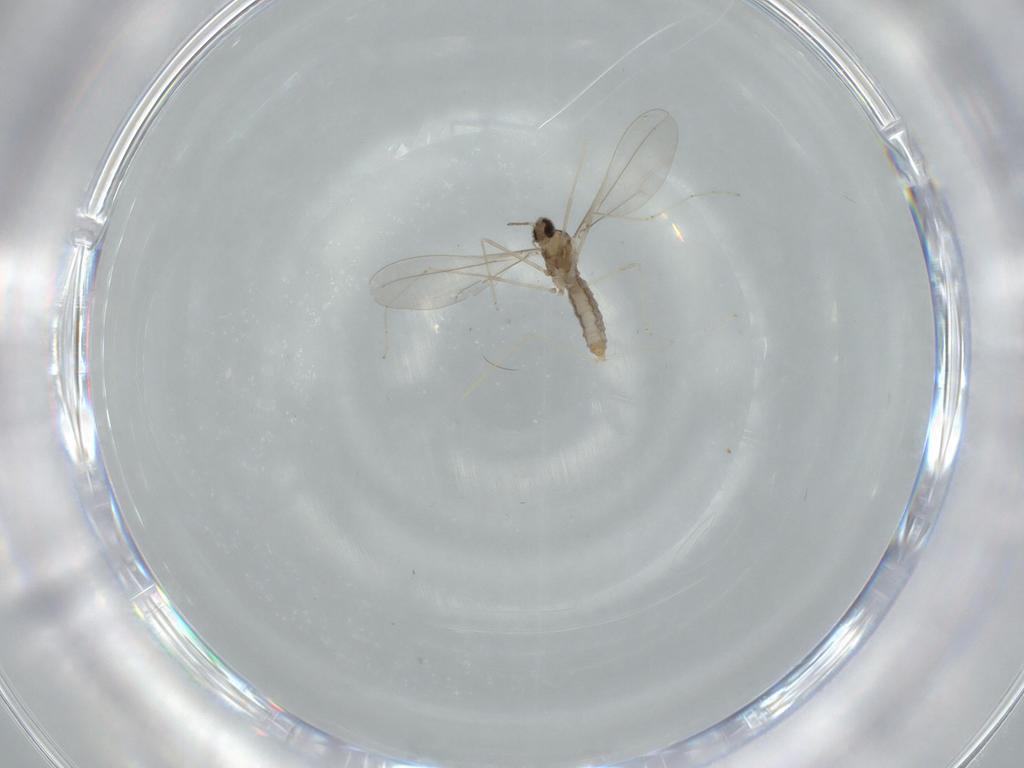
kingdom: Animalia
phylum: Arthropoda
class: Insecta
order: Diptera
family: Cecidomyiidae
